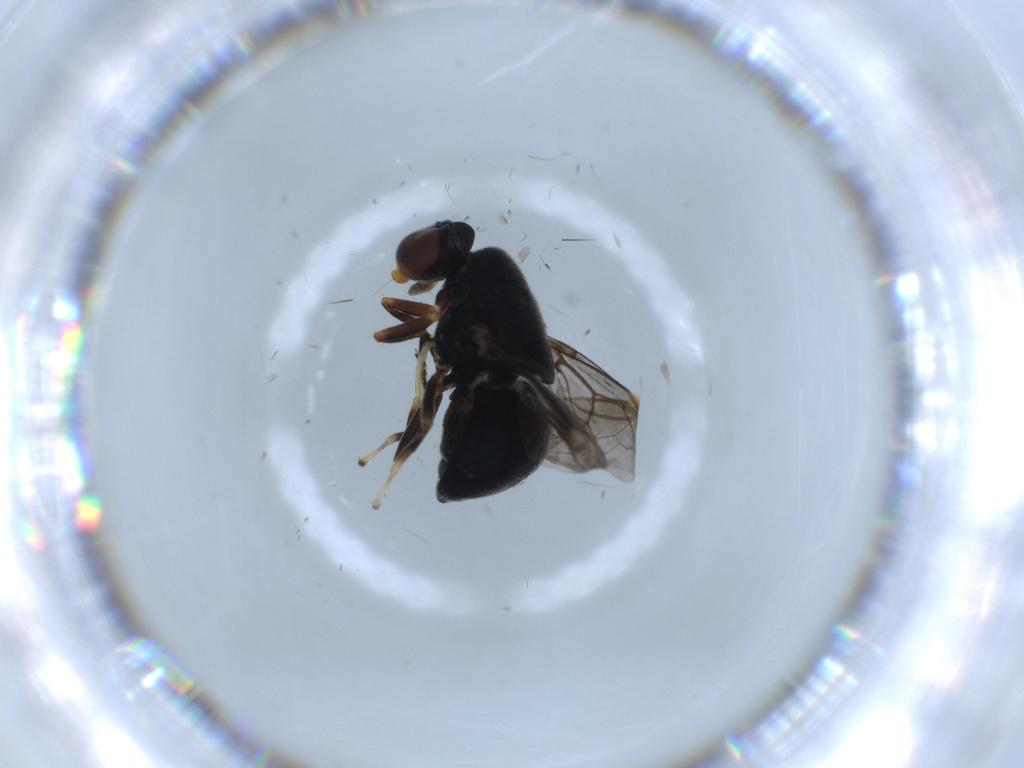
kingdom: Animalia
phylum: Arthropoda
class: Insecta
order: Diptera
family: Stratiomyidae
